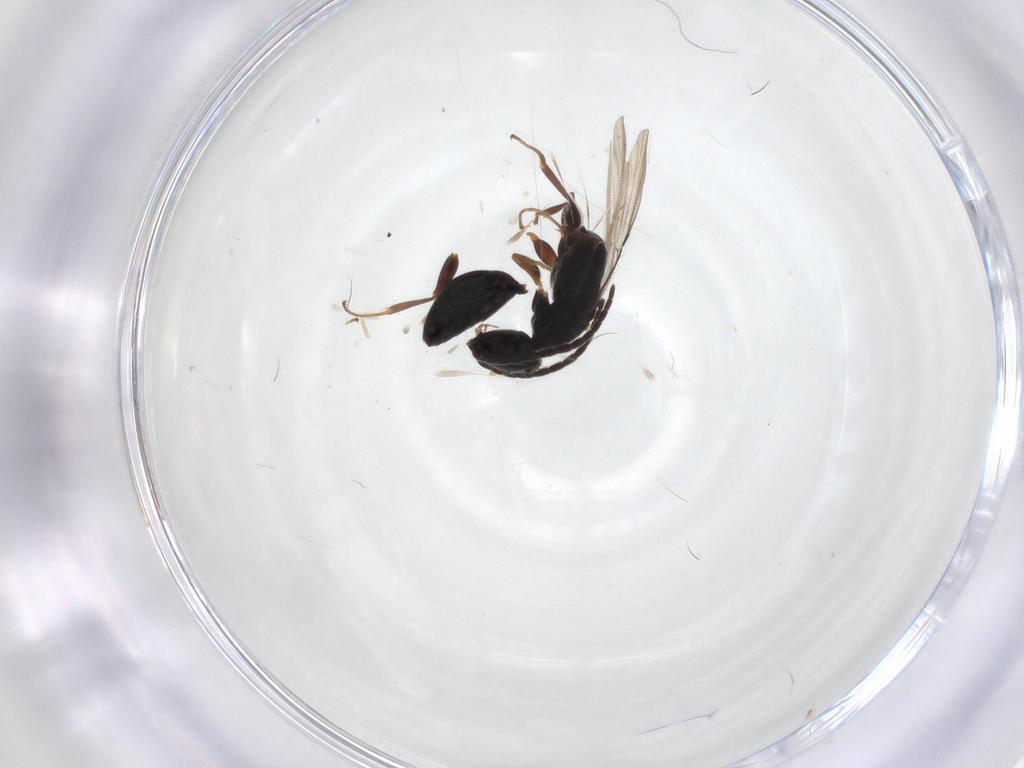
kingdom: Animalia
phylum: Arthropoda
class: Insecta
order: Hymenoptera
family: Bethylidae
